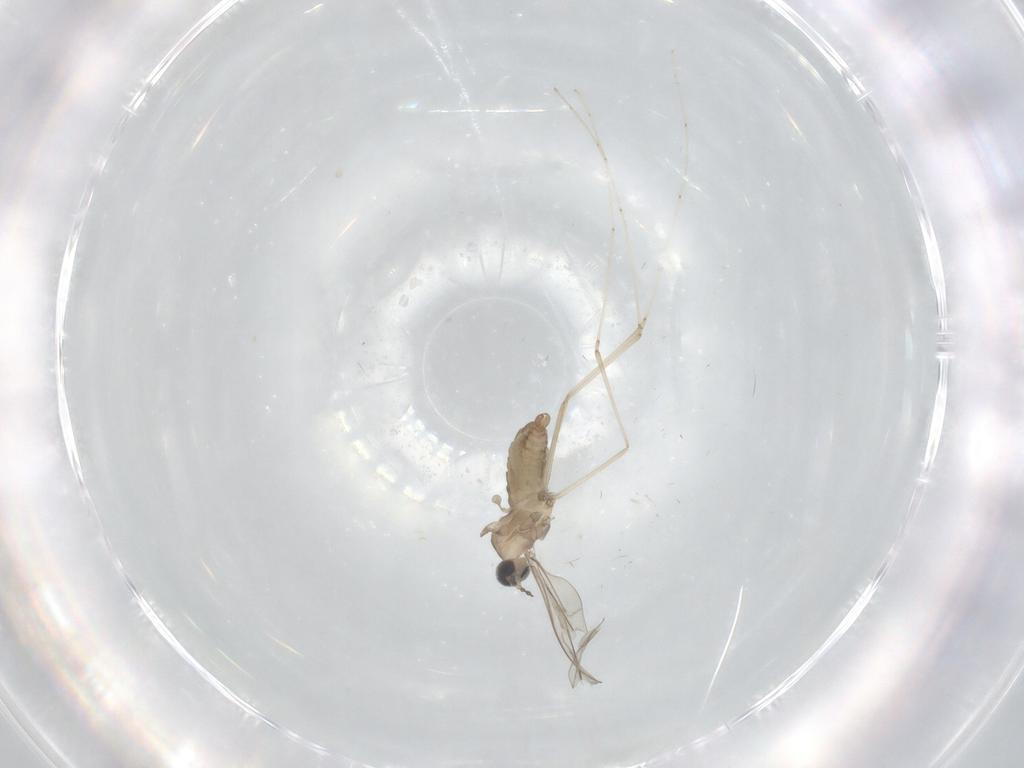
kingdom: Animalia
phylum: Arthropoda
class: Insecta
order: Diptera
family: Cecidomyiidae
